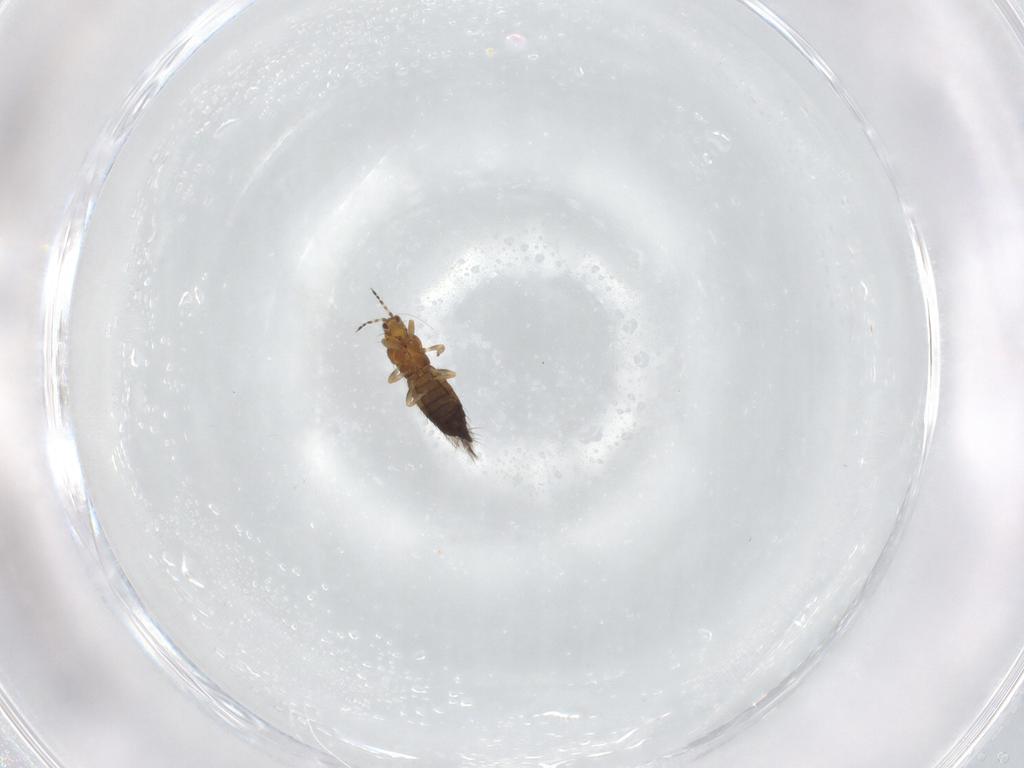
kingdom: Animalia
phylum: Arthropoda
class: Insecta
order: Thysanoptera
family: Thripidae
